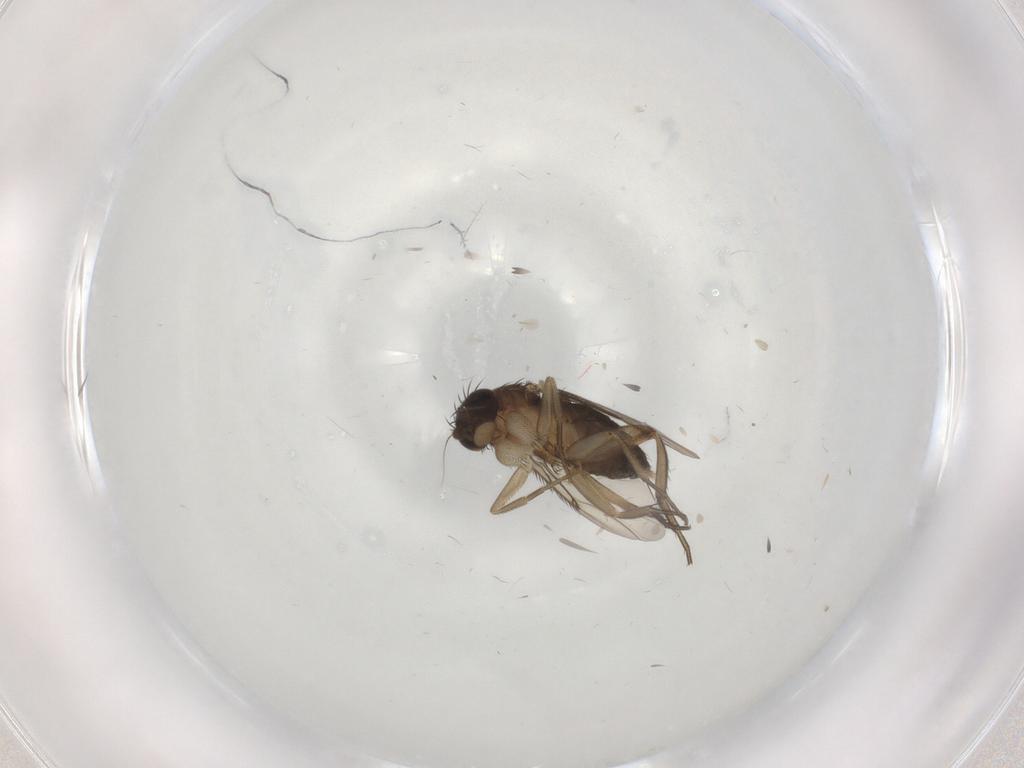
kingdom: Animalia
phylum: Arthropoda
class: Insecta
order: Diptera
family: Phoridae
